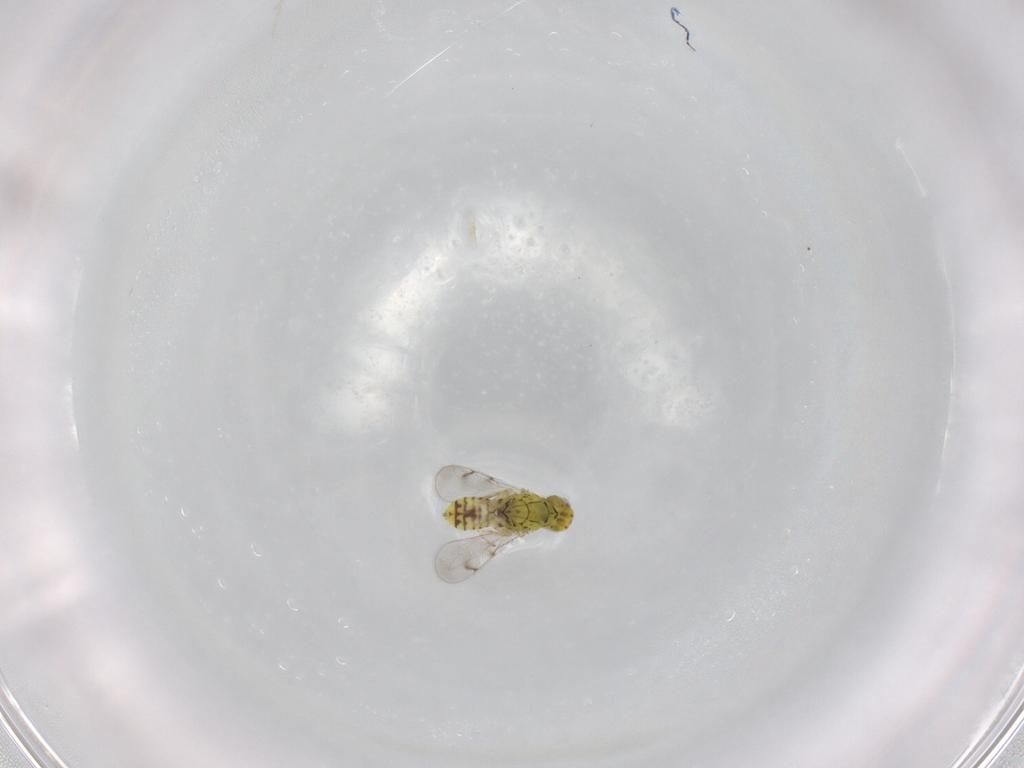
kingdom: Animalia
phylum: Arthropoda
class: Insecta
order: Hymenoptera
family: Eulophidae
